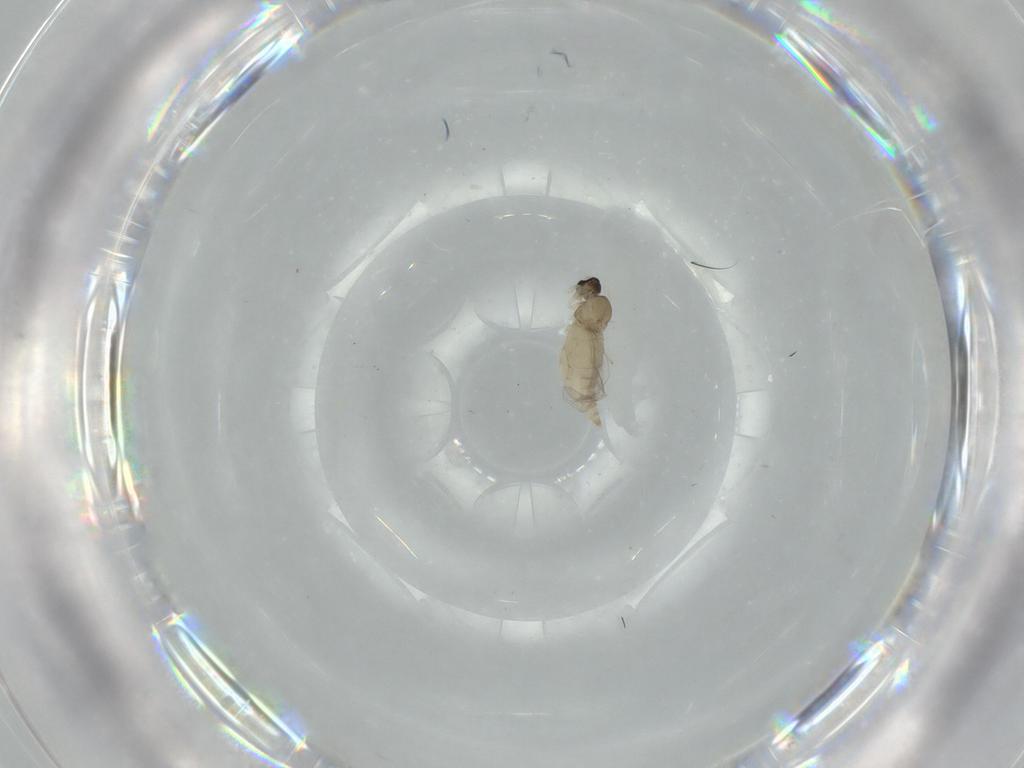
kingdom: Animalia
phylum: Arthropoda
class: Insecta
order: Diptera
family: Cecidomyiidae
